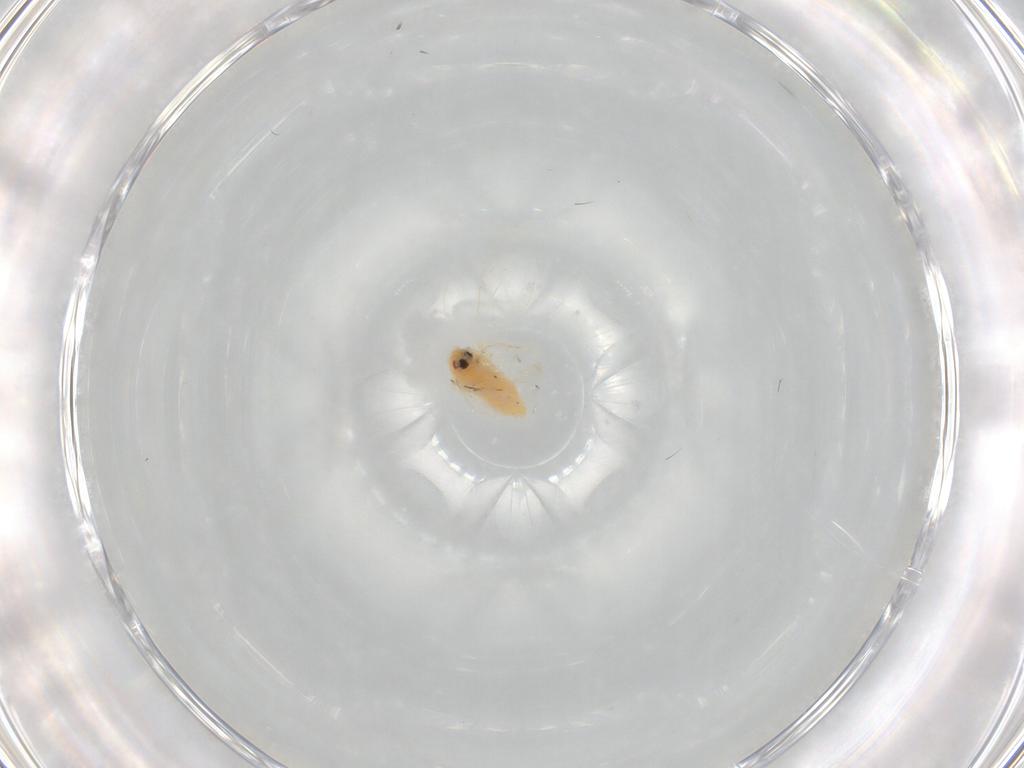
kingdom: Animalia
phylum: Arthropoda
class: Insecta
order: Hemiptera
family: Aleyrodidae
